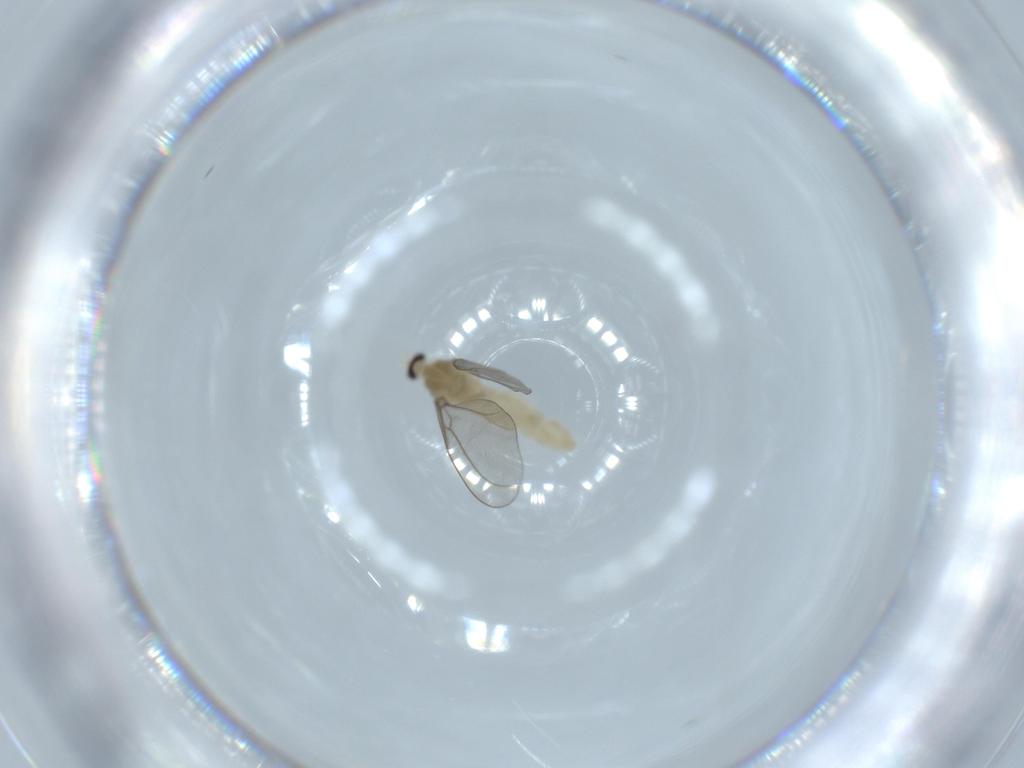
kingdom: Animalia
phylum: Arthropoda
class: Insecta
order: Diptera
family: Cecidomyiidae
